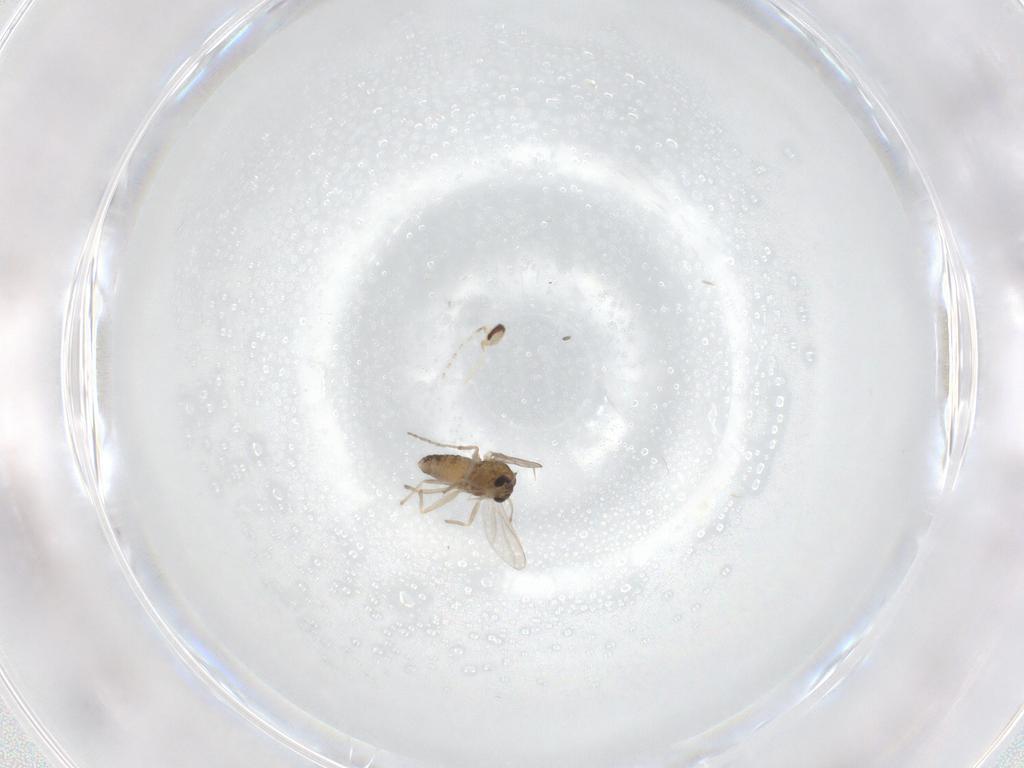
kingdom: Animalia
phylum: Arthropoda
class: Insecta
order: Diptera
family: Chironomidae
